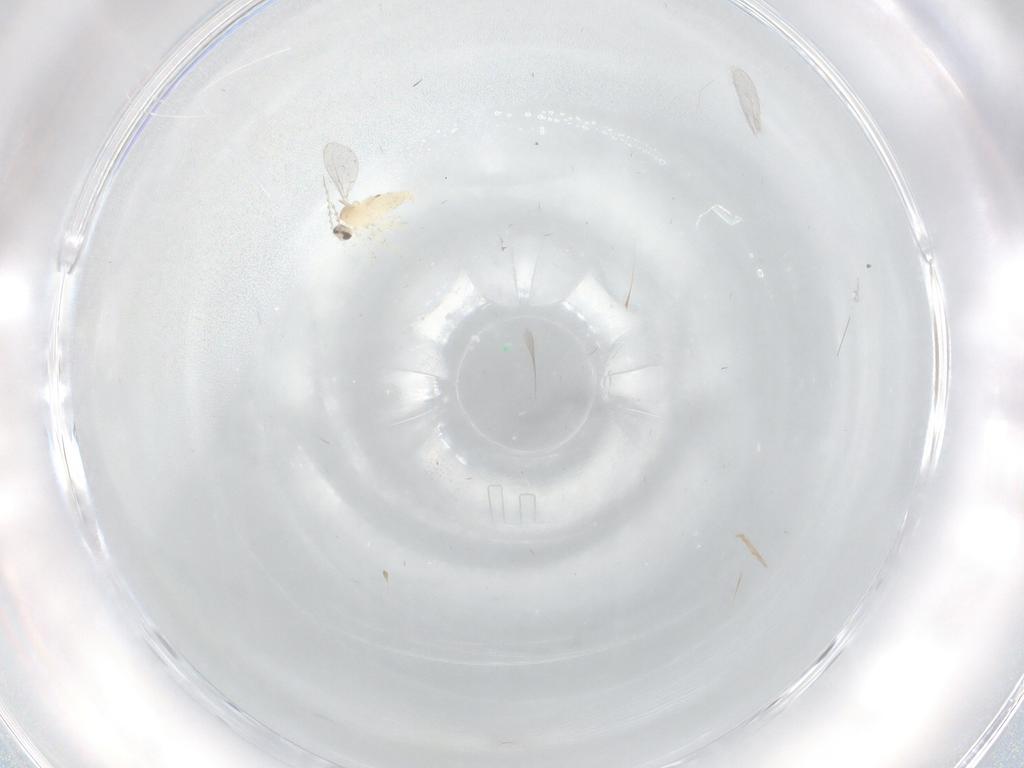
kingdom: Animalia
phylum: Arthropoda
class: Insecta
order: Diptera
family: Cecidomyiidae
